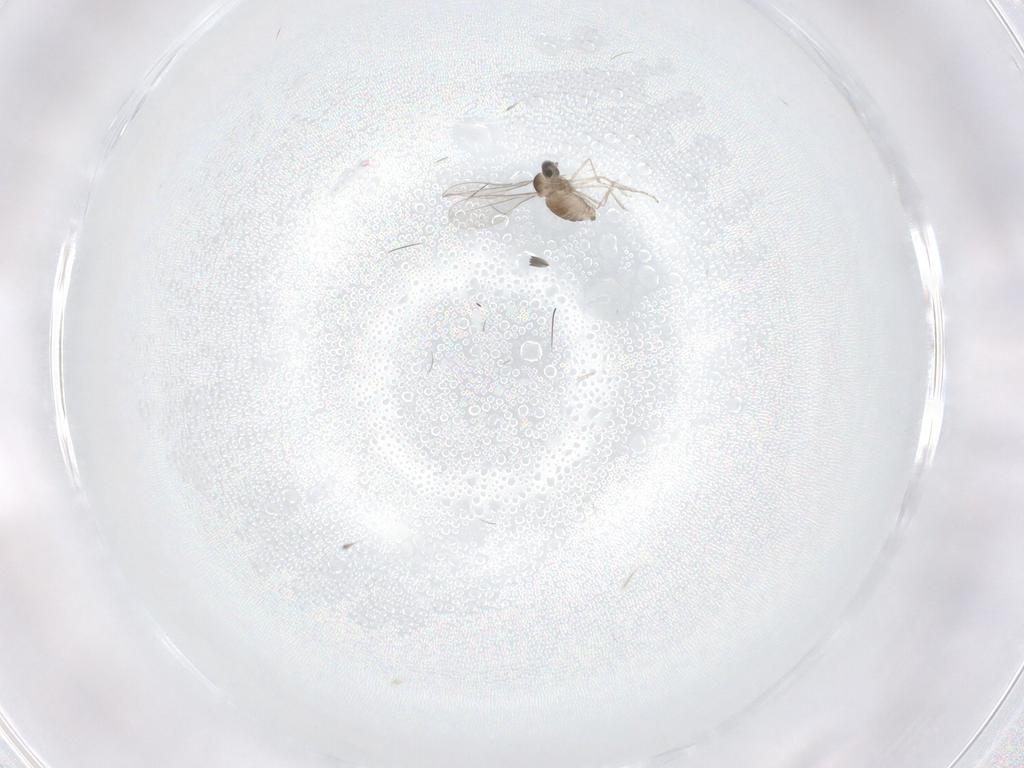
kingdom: Animalia
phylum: Arthropoda
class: Insecta
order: Diptera
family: Cecidomyiidae
